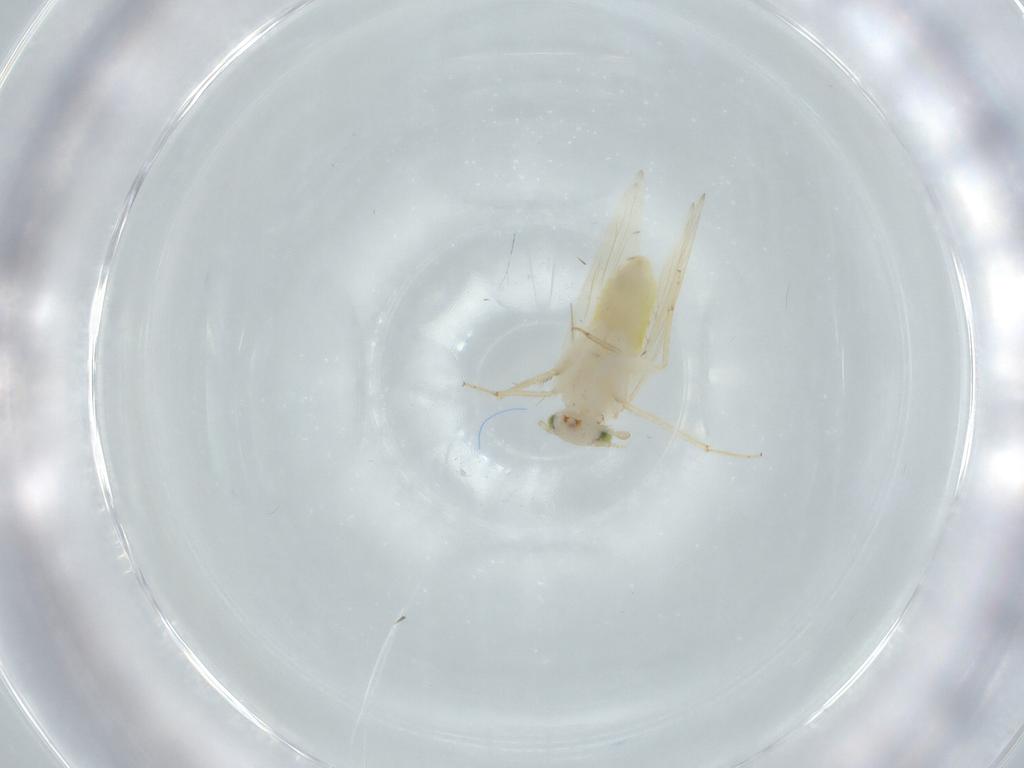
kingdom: Animalia
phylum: Arthropoda
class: Insecta
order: Psocodea
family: Lepidopsocidae
